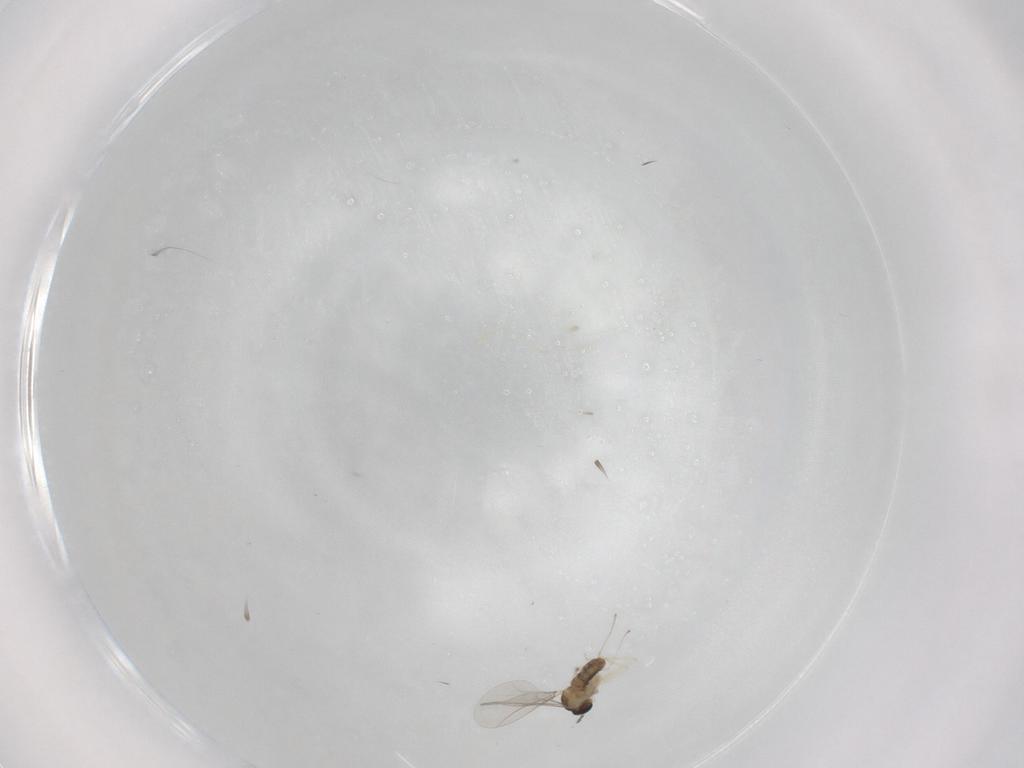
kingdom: Animalia
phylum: Arthropoda
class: Insecta
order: Diptera
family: Cecidomyiidae
